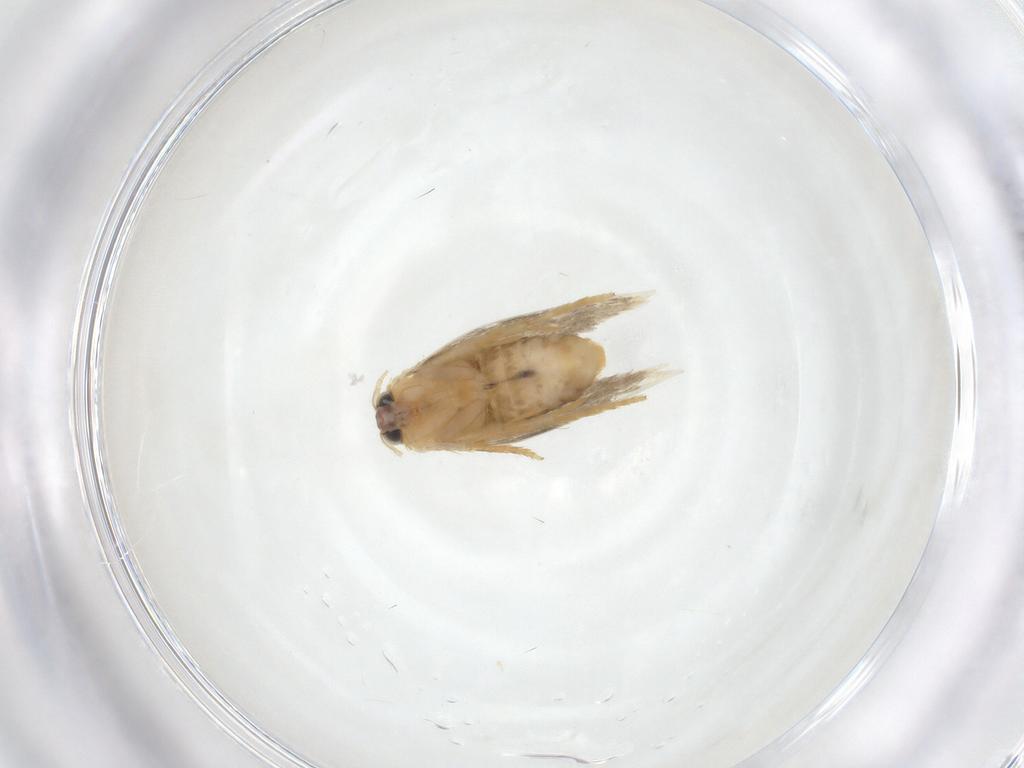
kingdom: Animalia
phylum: Arthropoda
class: Insecta
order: Lepidoptera
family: Nepticulidae
